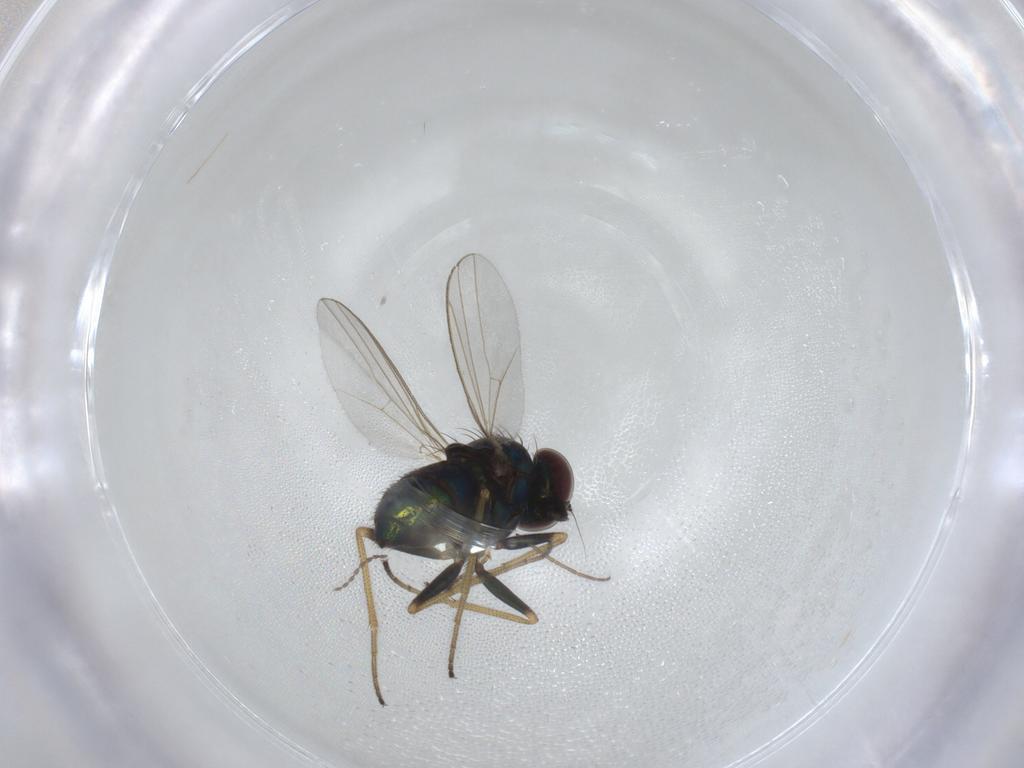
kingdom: Animalia
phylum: Arthropoda
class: Insecta
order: Diptera
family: Dolichopodidae
